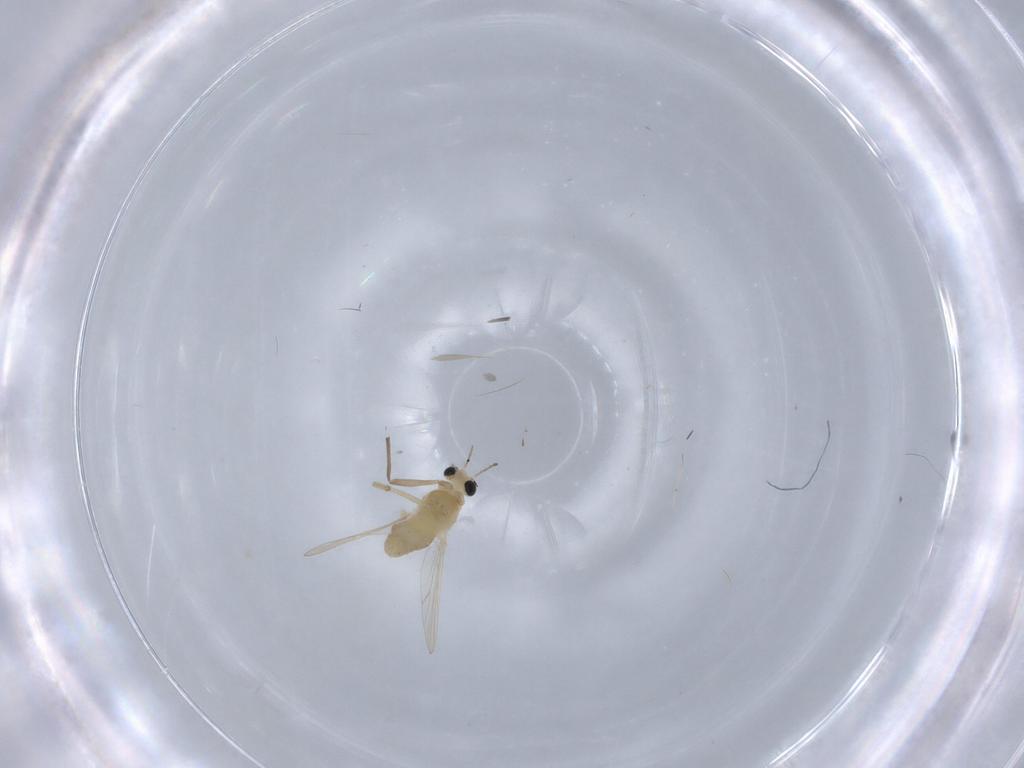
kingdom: Animalia
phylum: Arthropoda
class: Insecta
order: Diptera
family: Chironomidae
